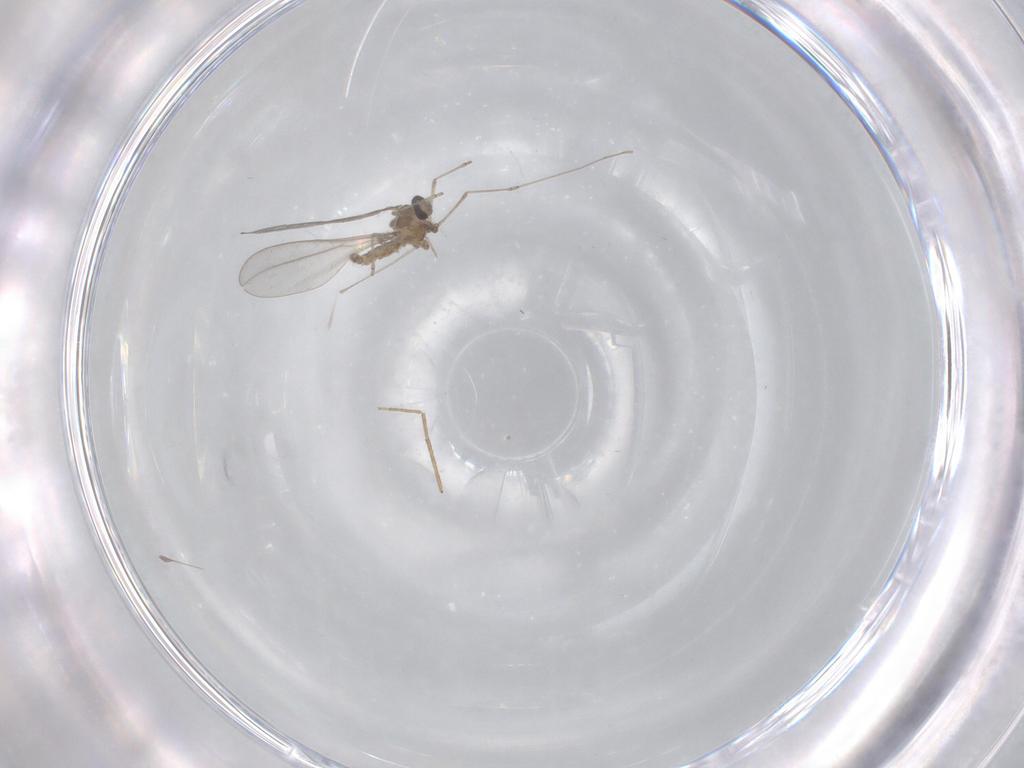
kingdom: Animalia
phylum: Arthropoda
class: Insecta
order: Diptera
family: Cecidomyiidae
